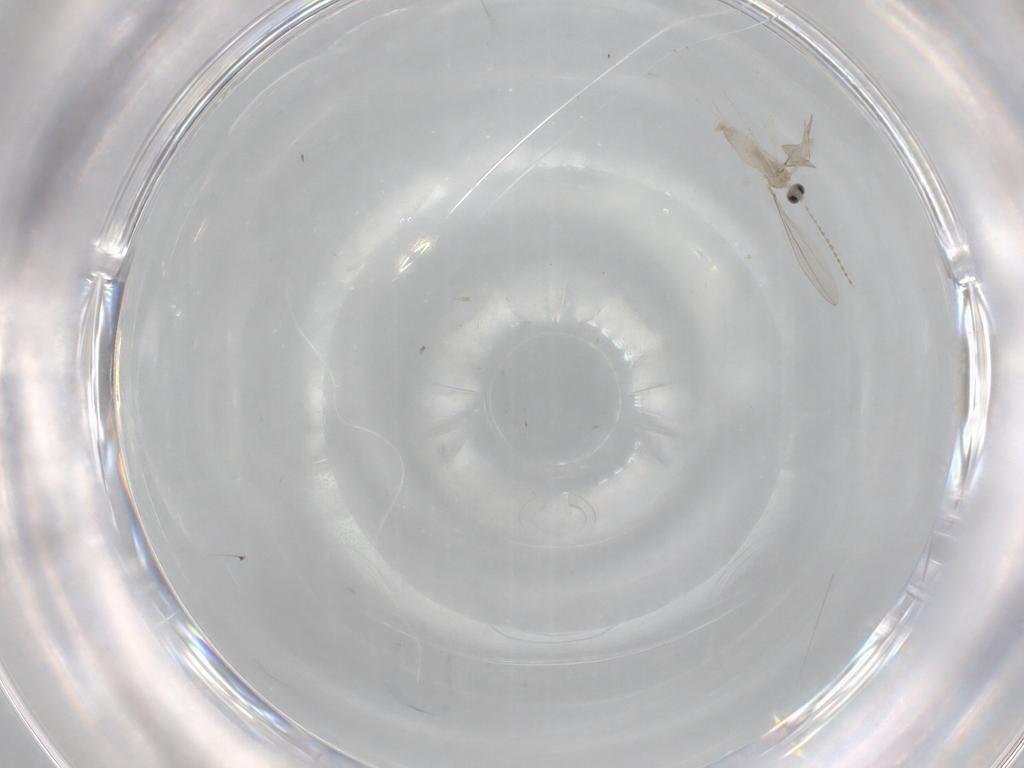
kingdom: Animalia
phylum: Arthropoda
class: Insecta
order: Diptera
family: Cecidomyiidae
